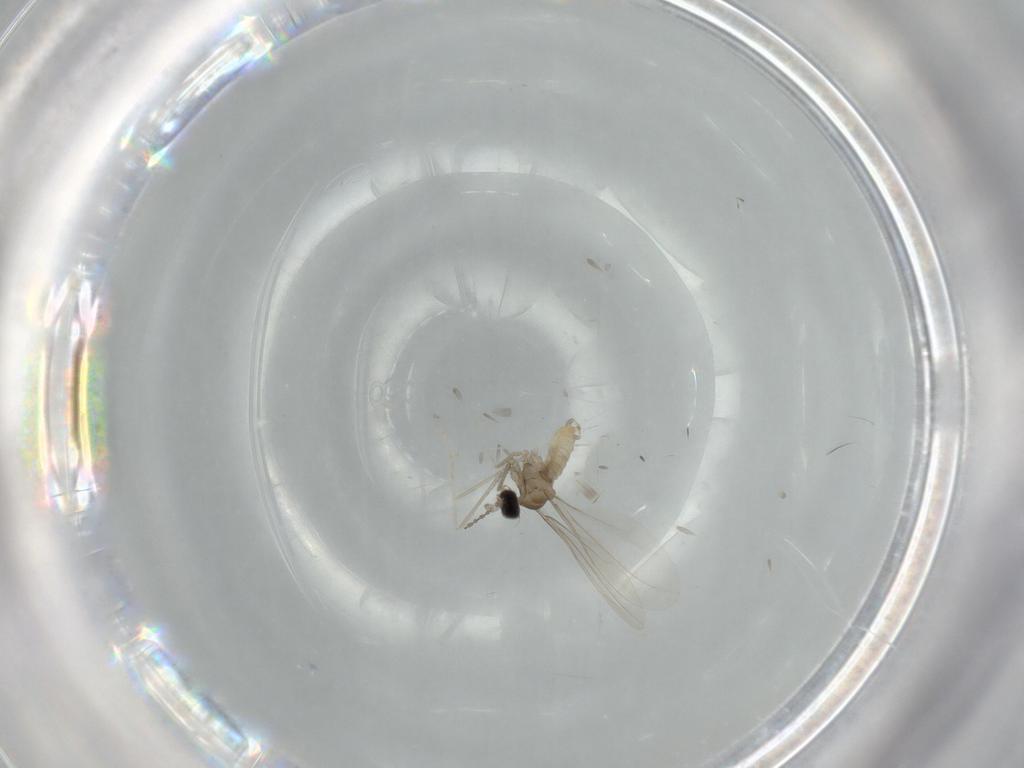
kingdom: Animalia
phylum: Arthropoda
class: Insecta
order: Diptera
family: Cecidomyiidae
